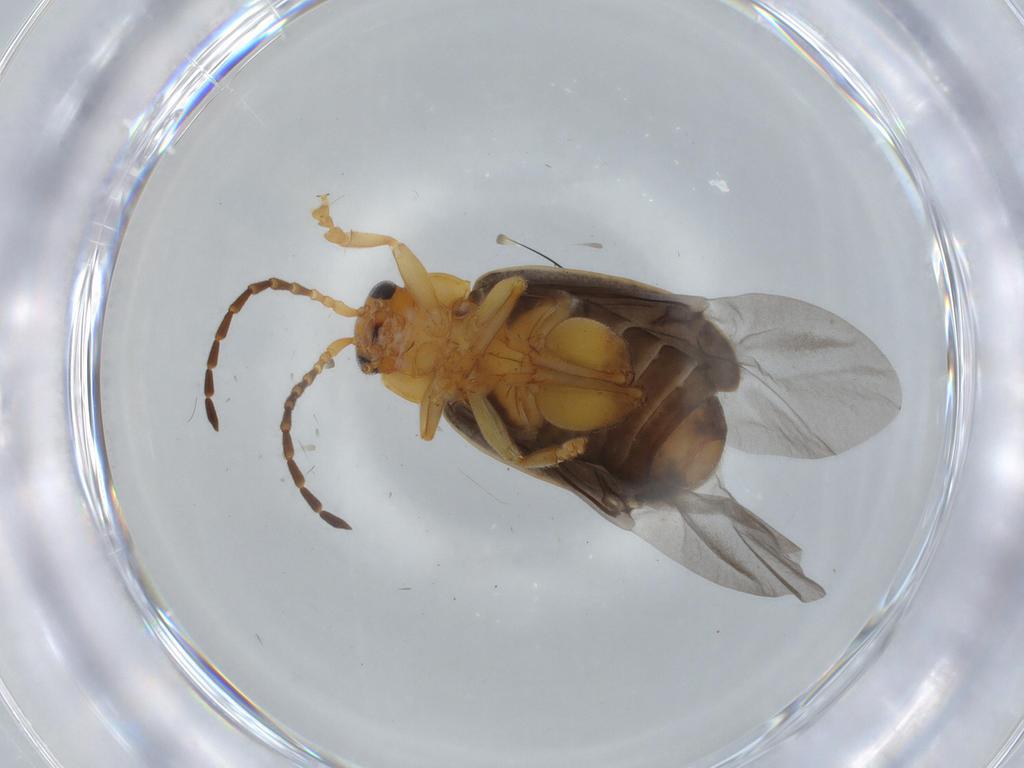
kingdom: Animalia
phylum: Arthropoda
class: Insecta
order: Coleoptera
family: Chrysomelidae
